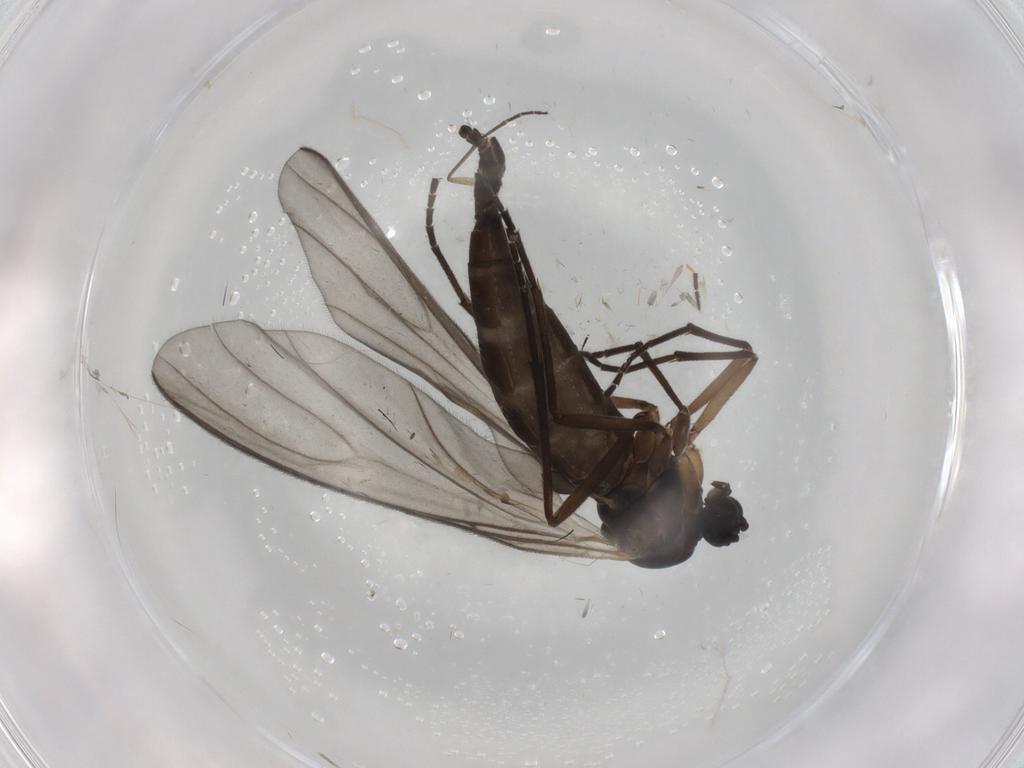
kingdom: Animalia
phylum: Arthropoda
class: Insecta
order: Diptera
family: Sciaridae
